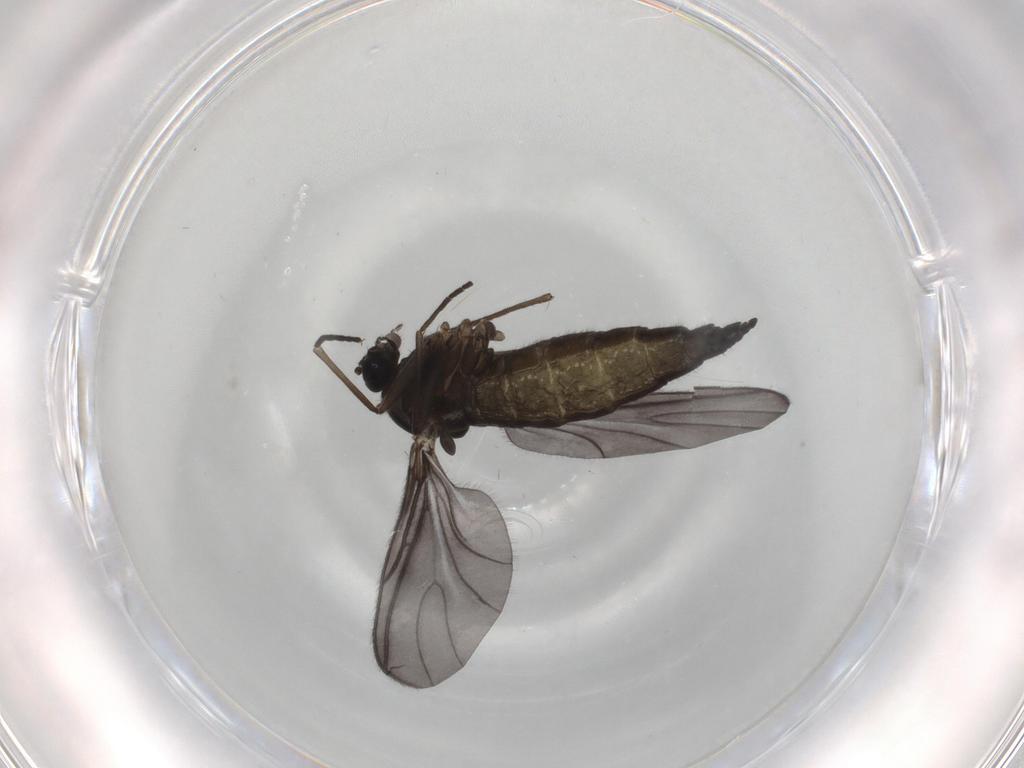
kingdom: Animalia
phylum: Arthropoda
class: Insecta
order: Diptera
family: Sciaridae
